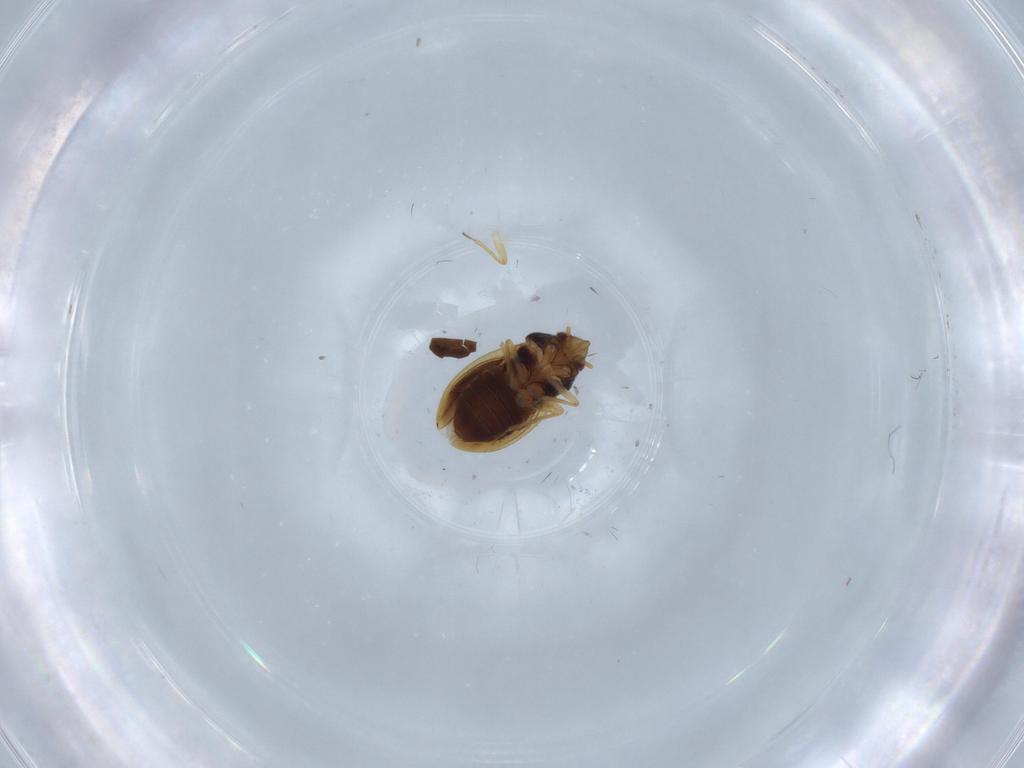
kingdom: Animalia
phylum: Arthropoda
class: Insecta
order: Hemiptera
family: Schizopteridae
